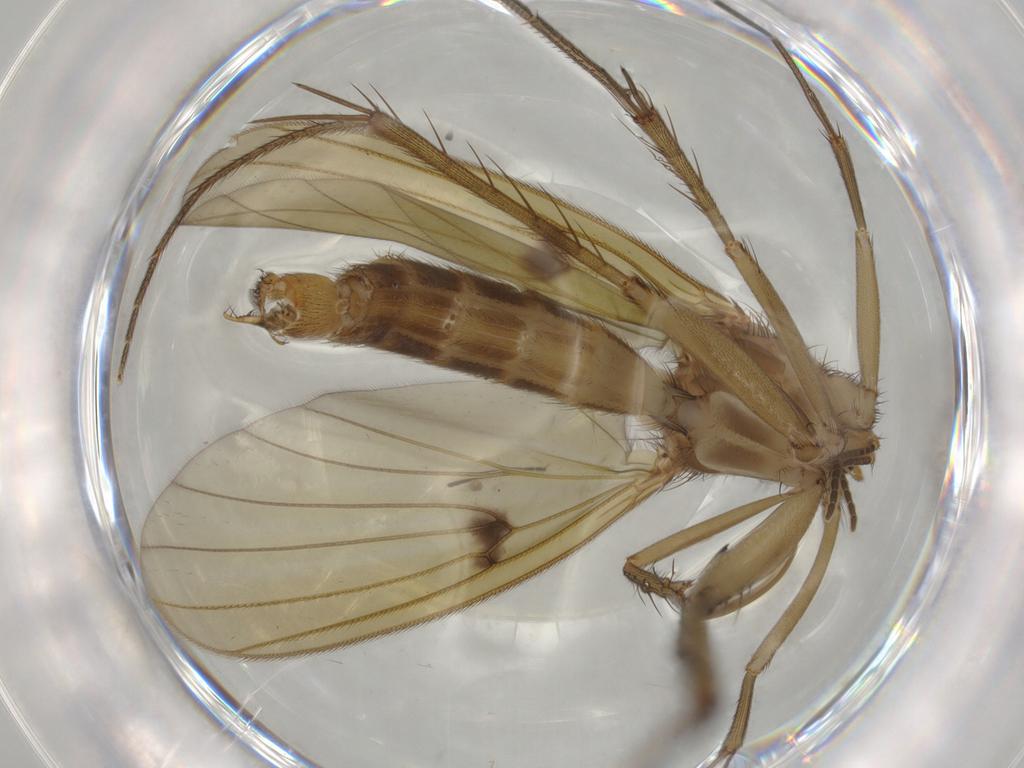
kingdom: Animalia
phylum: Arthropoda
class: Insecta
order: Diptera
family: Mycetophilidae
